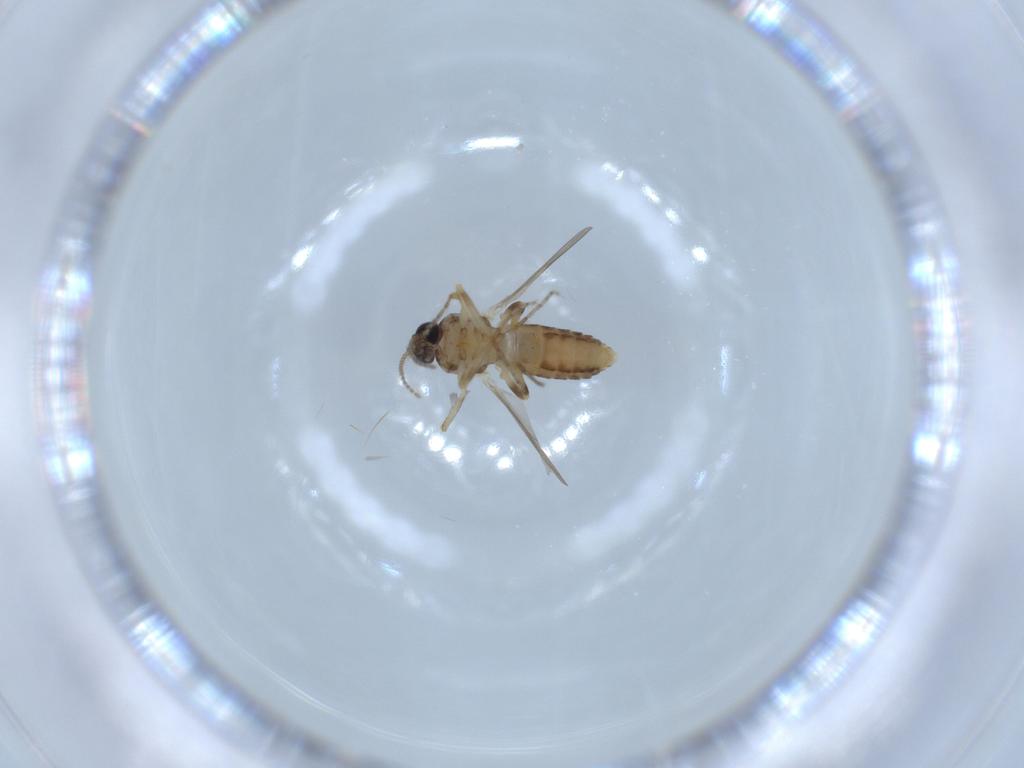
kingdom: Animalia
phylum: Arthropoda
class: Insecta
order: Diptera
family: Ceratopogonidae
